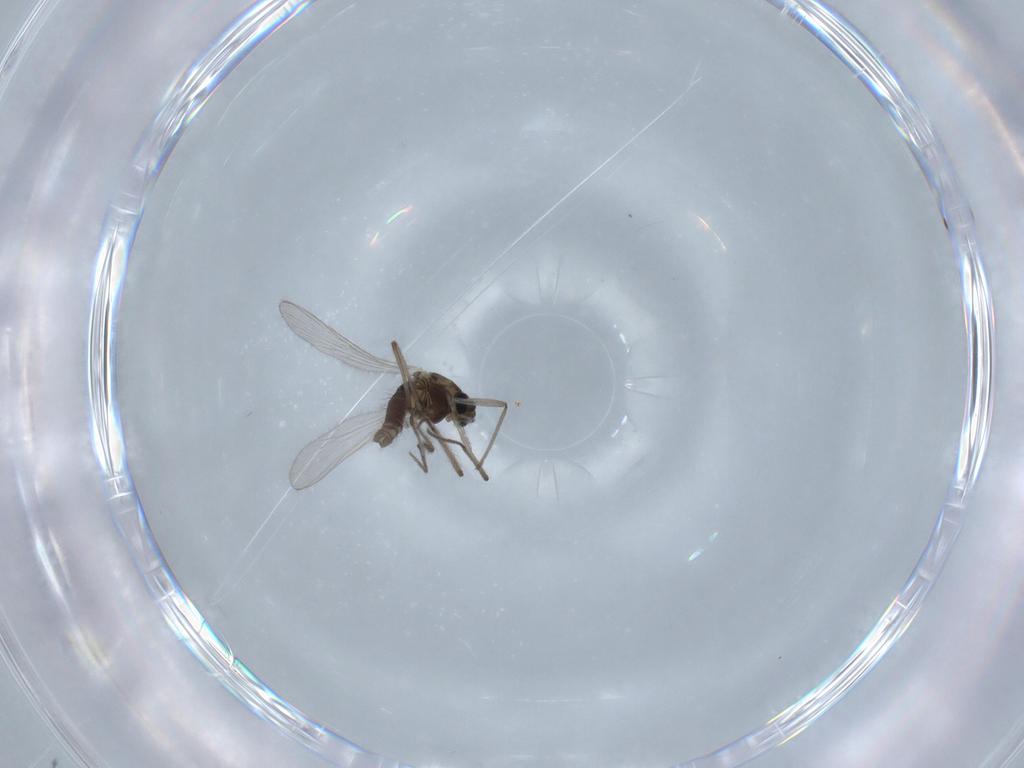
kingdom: Animalia
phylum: Arthropoda
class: Insecta
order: Diptera
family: Chironomidae
